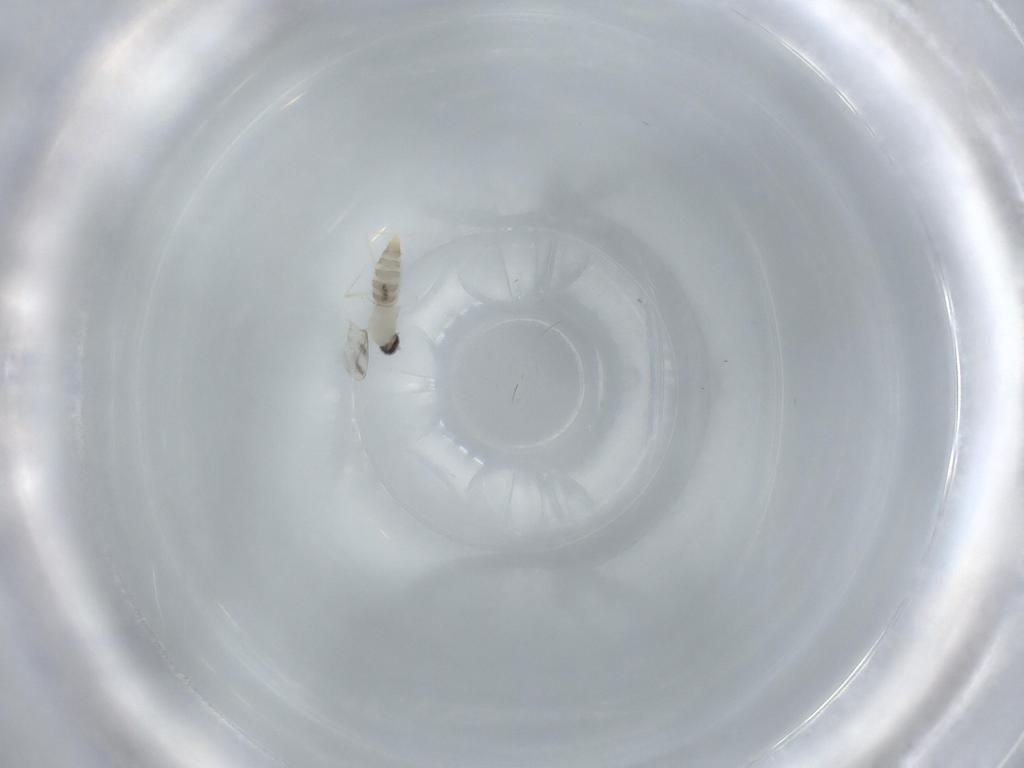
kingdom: Animalia
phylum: Arthropoda
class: Insecta
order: Diptera
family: Cecidomyiidae
